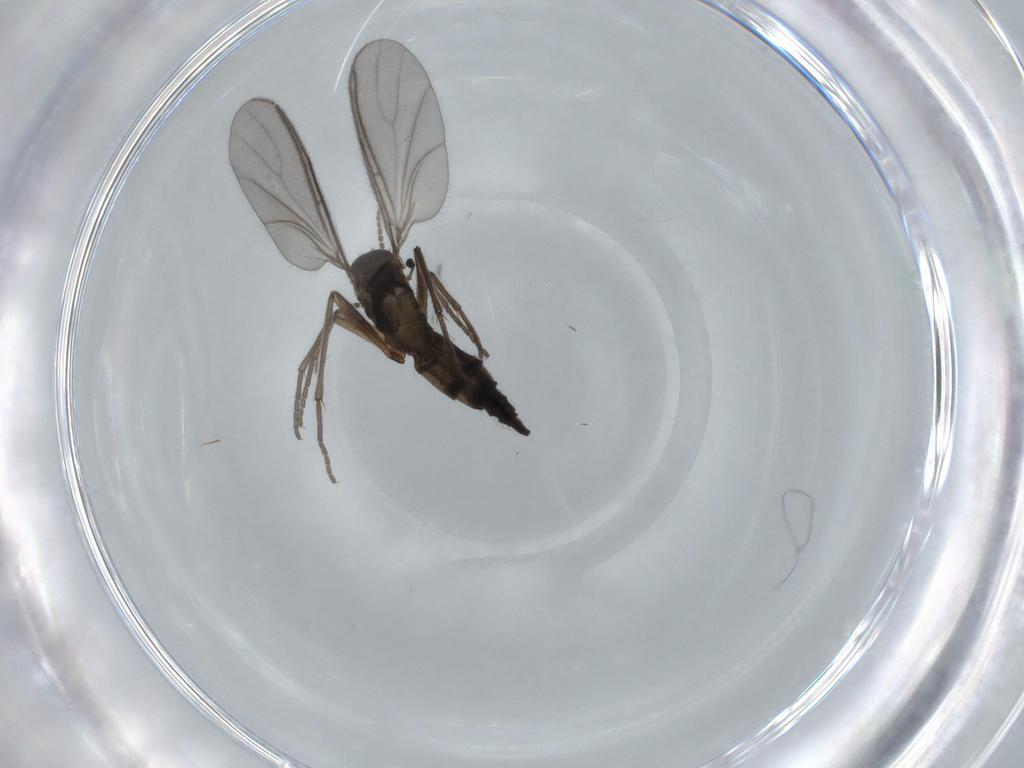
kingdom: Animalia
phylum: Arthropoda
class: Insecta
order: Diptera
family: Sciaridae
